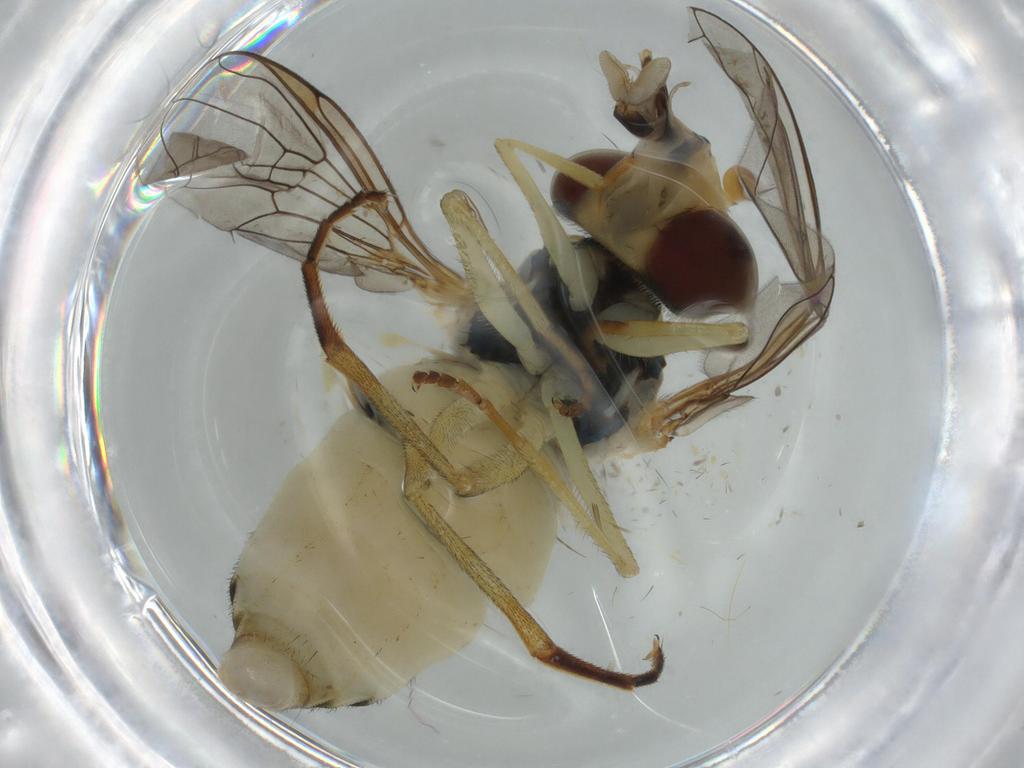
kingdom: Animalia
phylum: Arthropoda
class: Insecta
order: Diptera
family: Syrphidae
